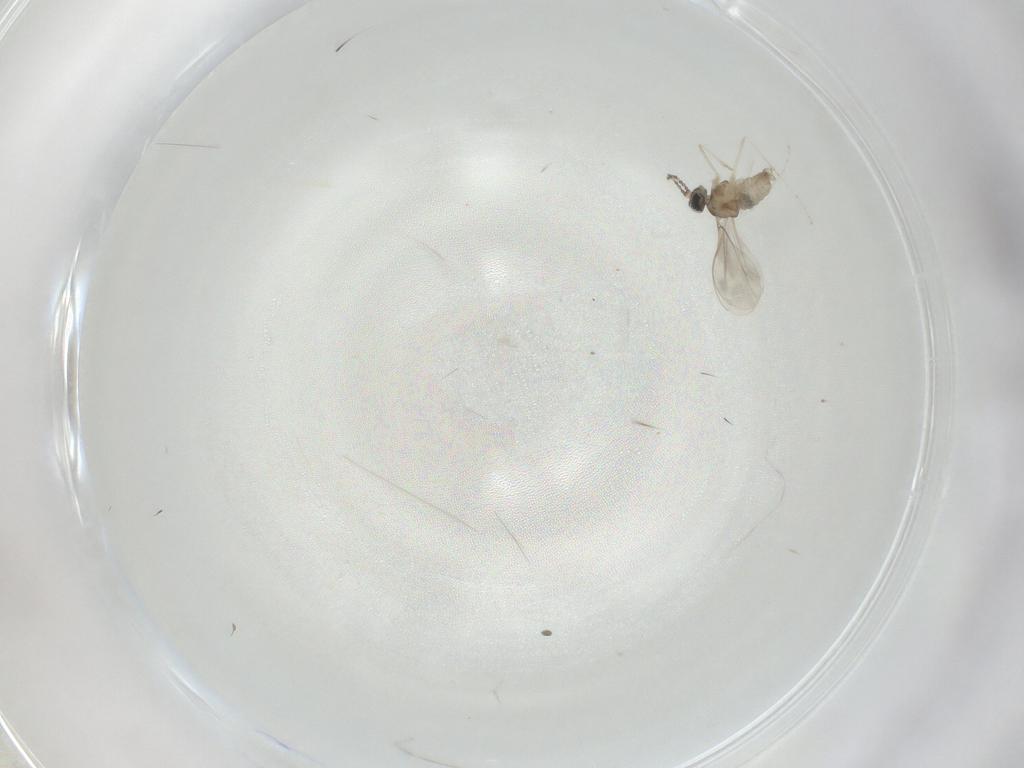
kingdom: Animalia
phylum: Arthropoda
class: Insecta
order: Diptera
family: Cecidomyiidae
